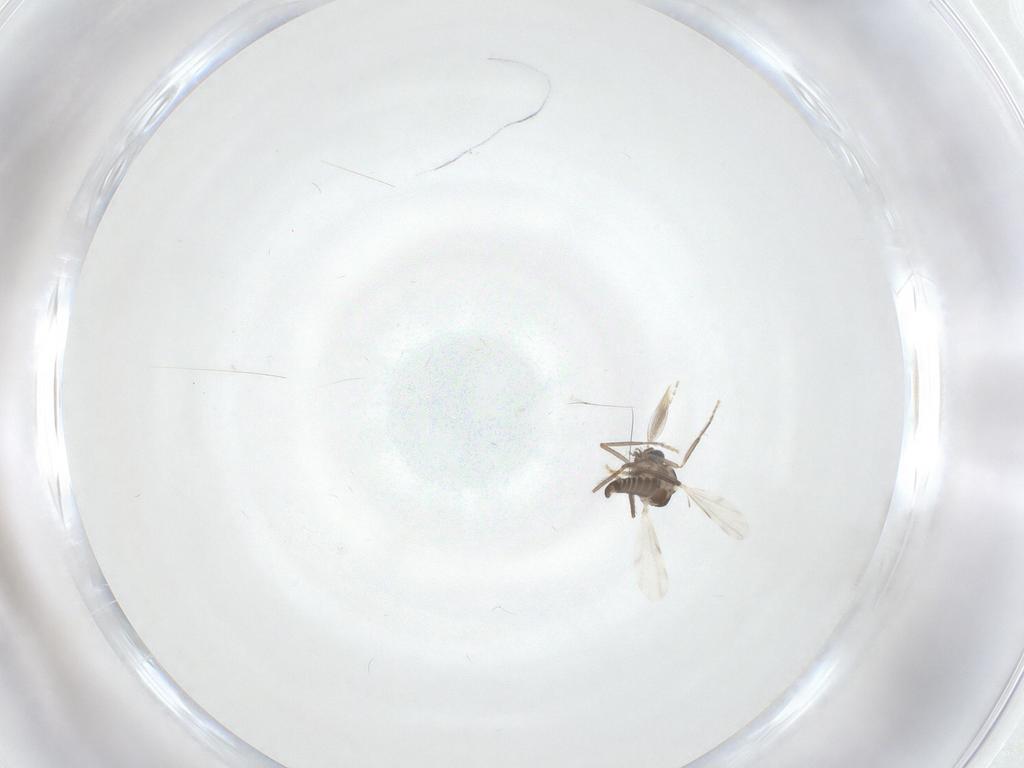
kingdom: Animalia
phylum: Arthropoda
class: Insecta
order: Diptera
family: Ceratopogonidae
